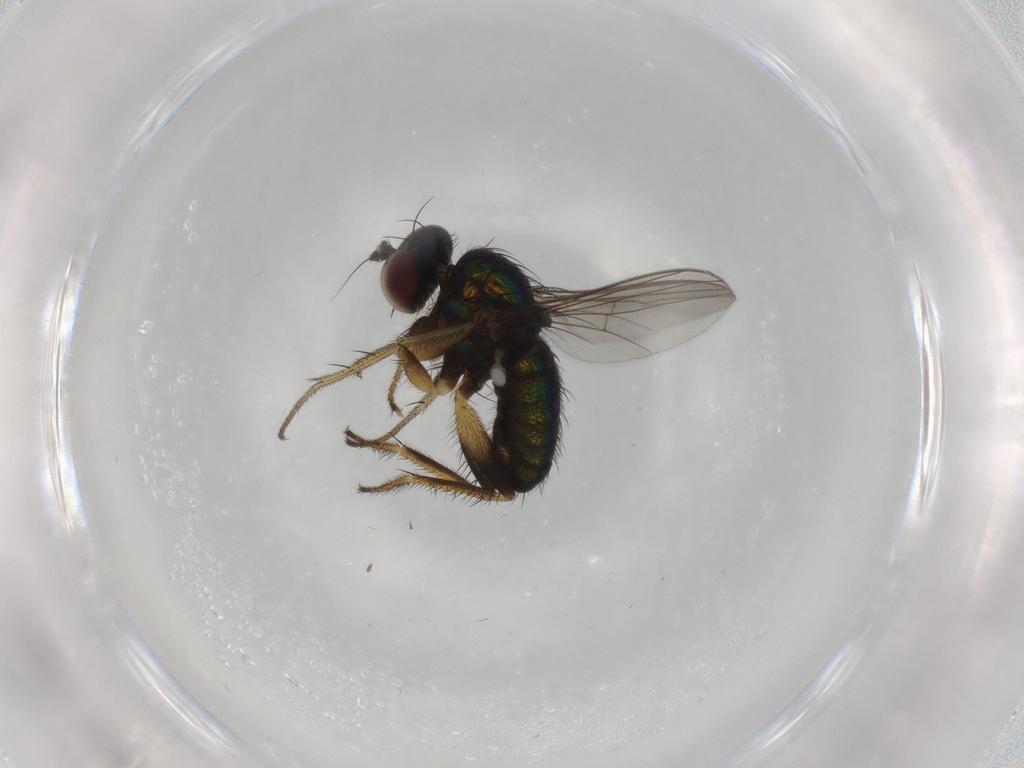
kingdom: Animalia
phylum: Arthropoda
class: Insecta
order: Diptera
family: Dolichopodidae
